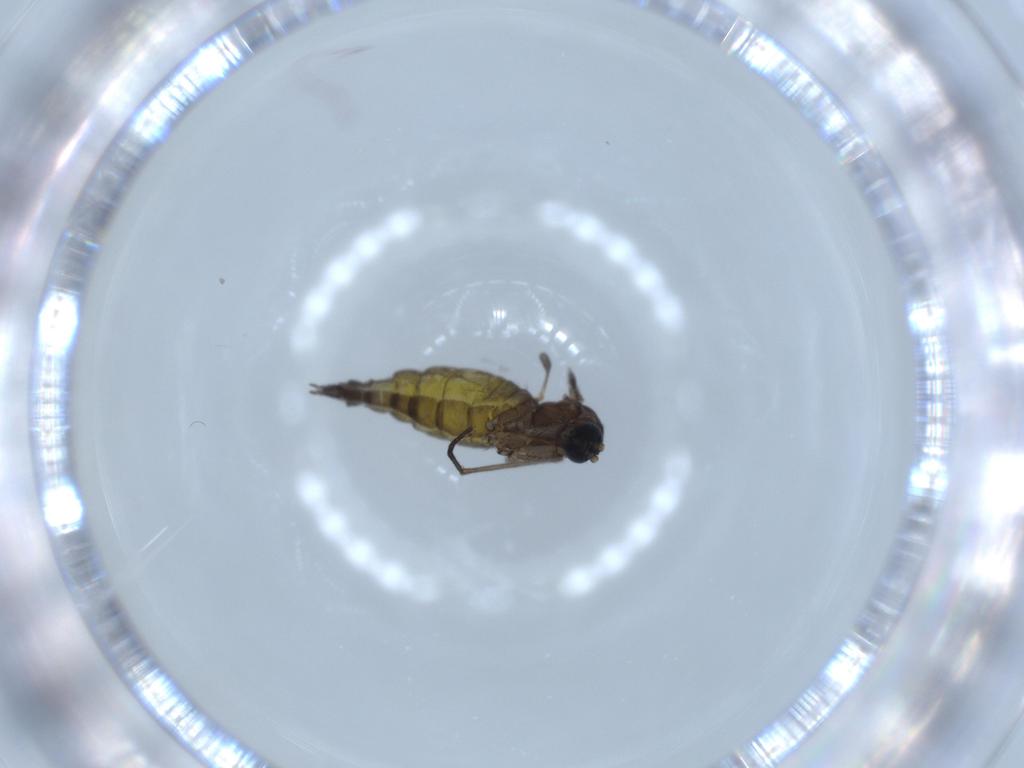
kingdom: Animalia
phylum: Arthropoda
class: Insecta
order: Diptera
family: Sciaridae
